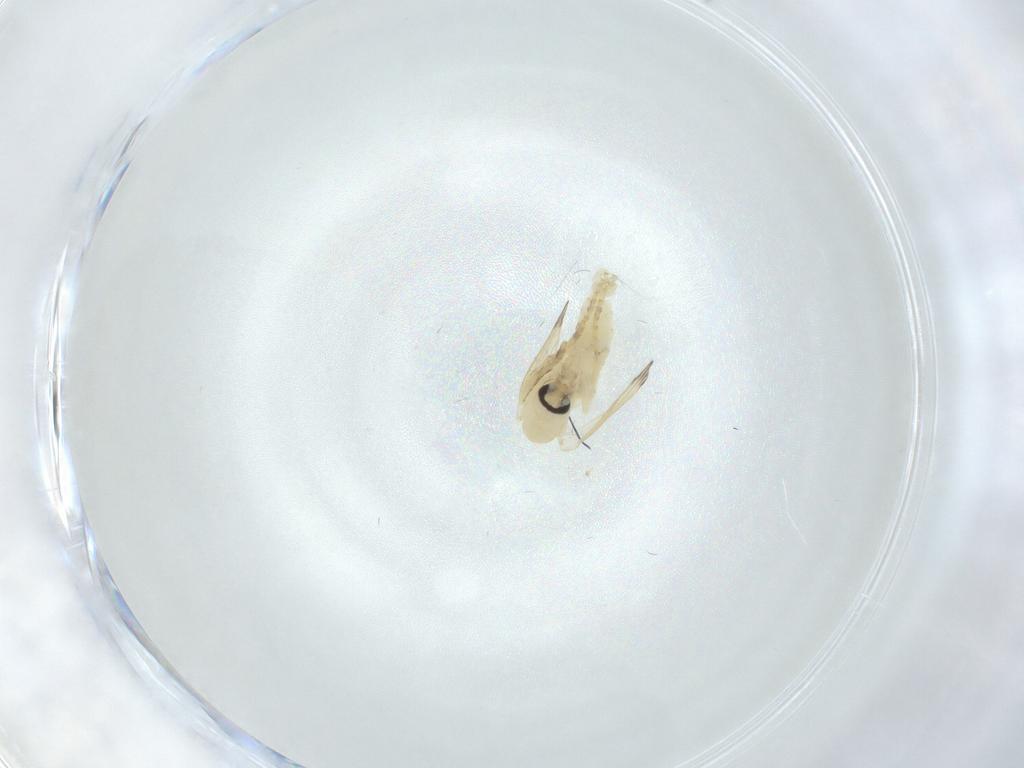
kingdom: Animalia
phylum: Arthropoda
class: Insecta
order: Diptera
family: Psychodidae
